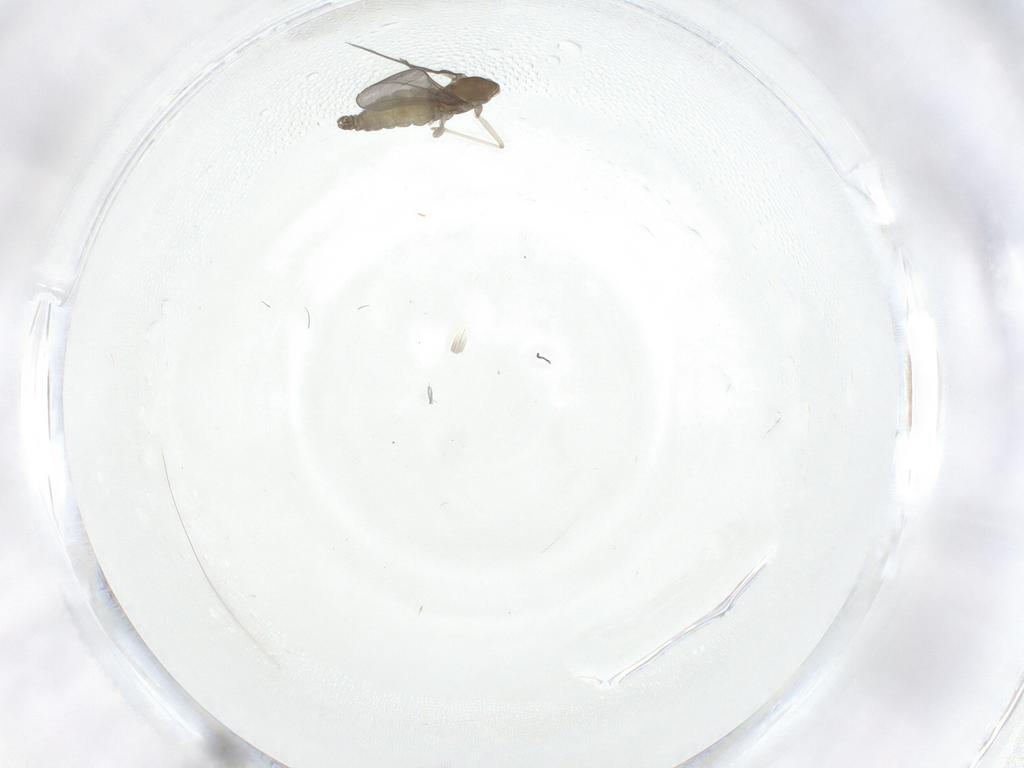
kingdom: Animalia
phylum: Arthropoda
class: Insecta
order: Diptera
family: Cecidomyiidae
